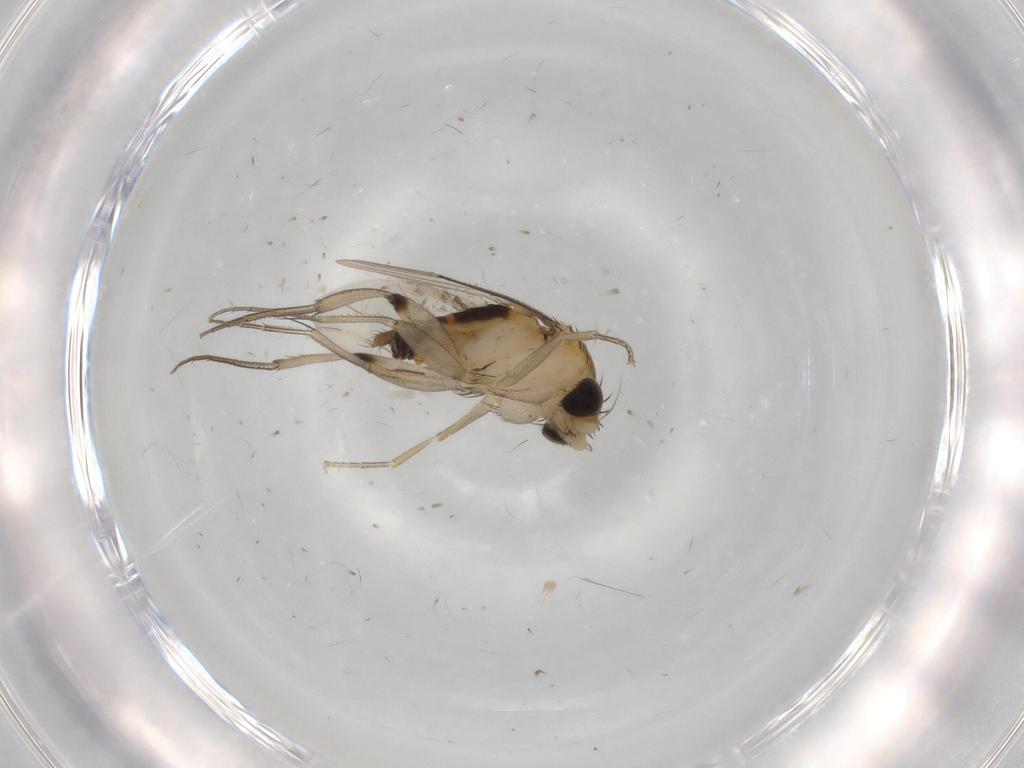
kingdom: Animalia
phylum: Arthropoda
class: Insecta
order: Diptera
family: Phoridae
